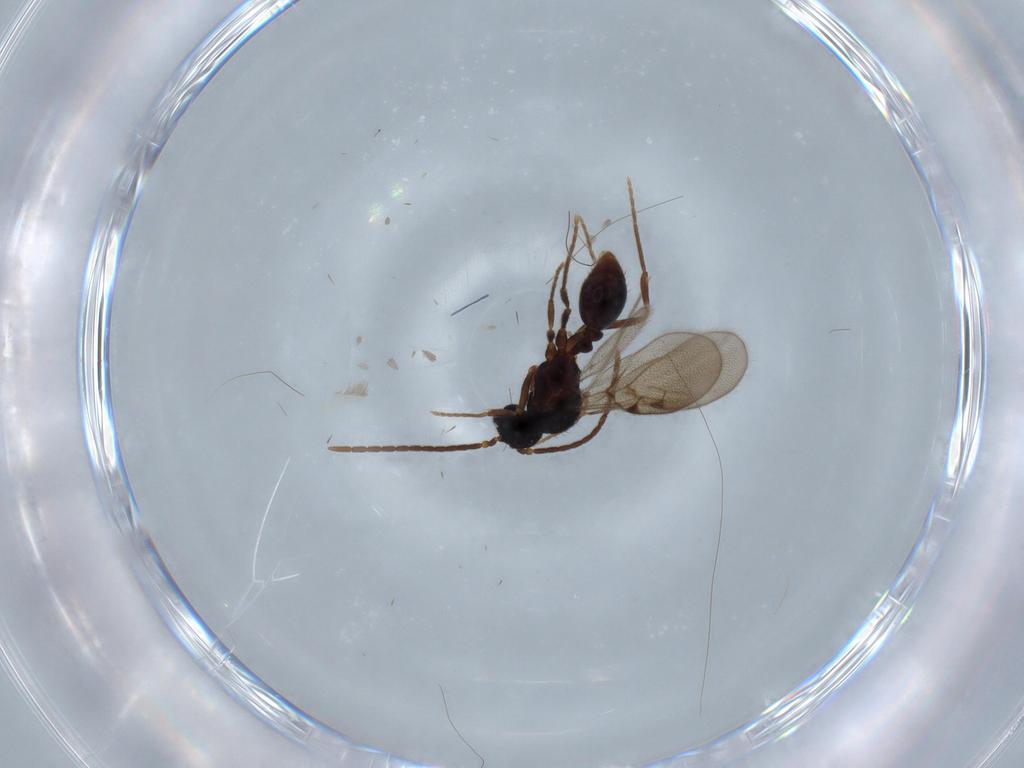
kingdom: Animalia
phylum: Arthropoda
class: Insecta
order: Hymenoptera
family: Formicidae
